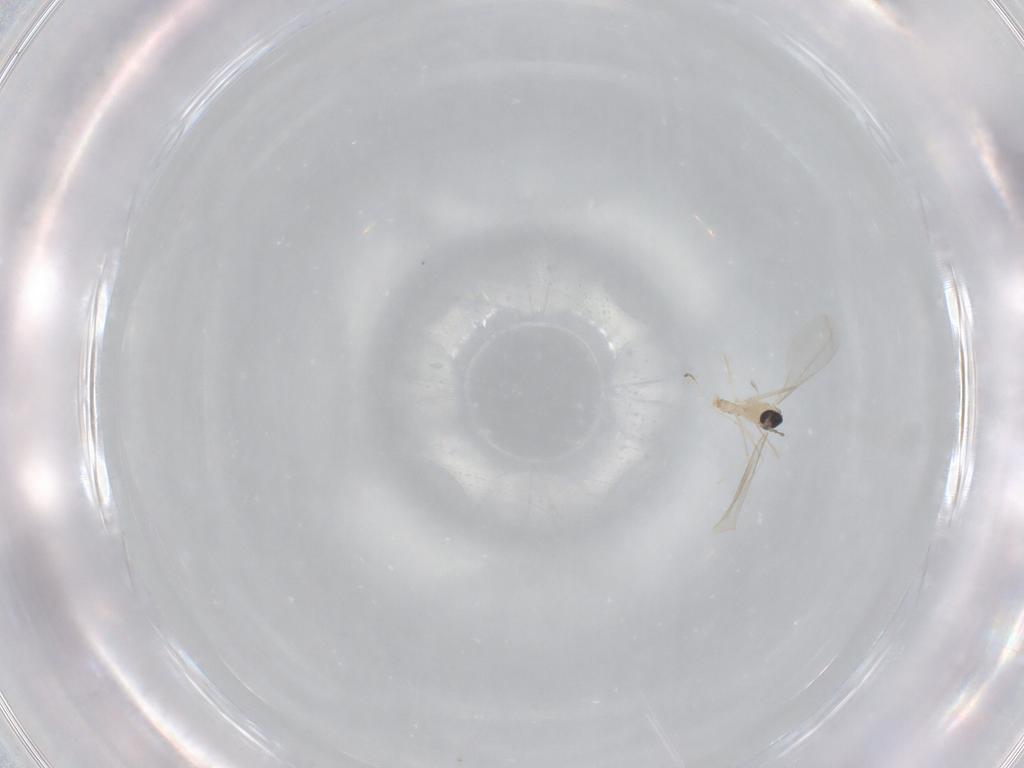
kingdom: Animalia
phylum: Arthropoda
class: Insecta
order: Diptera
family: Cecidomyiidae
